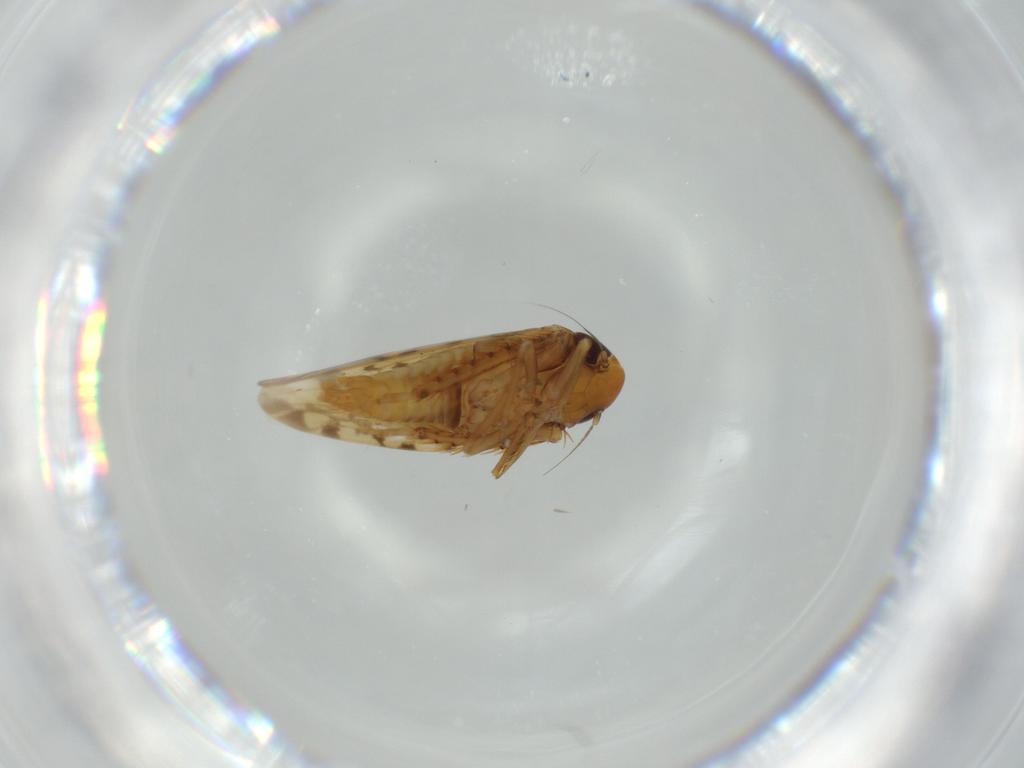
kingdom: Animalia
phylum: Arthropoda
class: Insecta
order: Hemiptera
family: Cicadellidae
